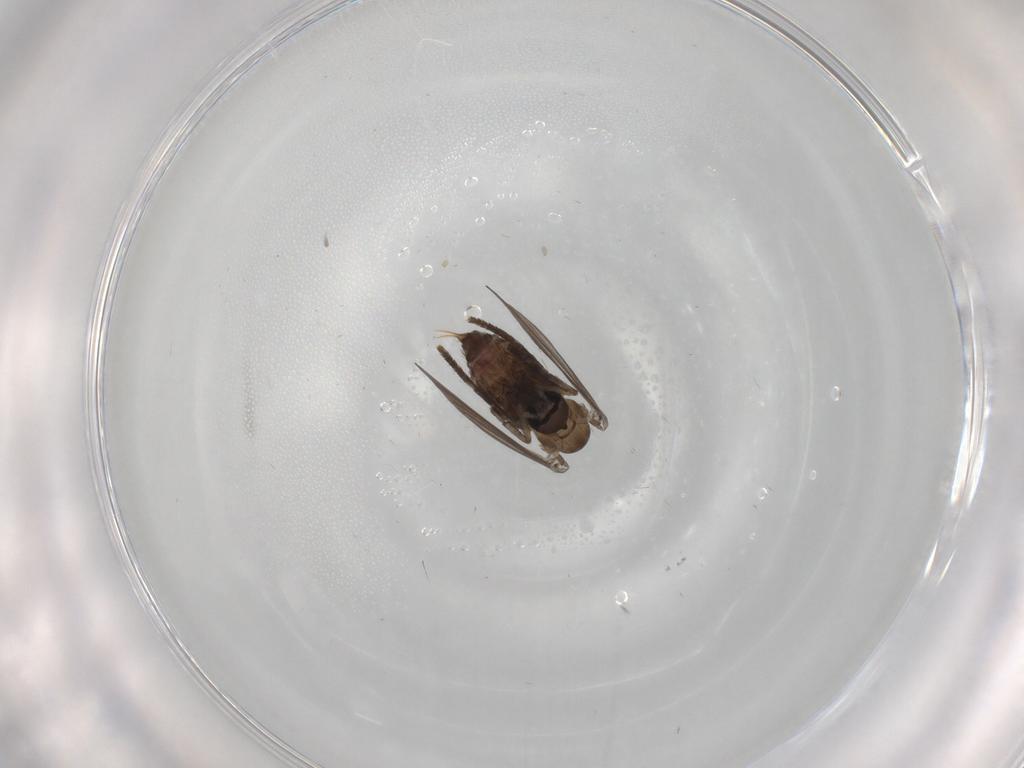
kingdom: Animalia
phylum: Arthropoda
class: Insecta
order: Diptera
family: Psychodidae
